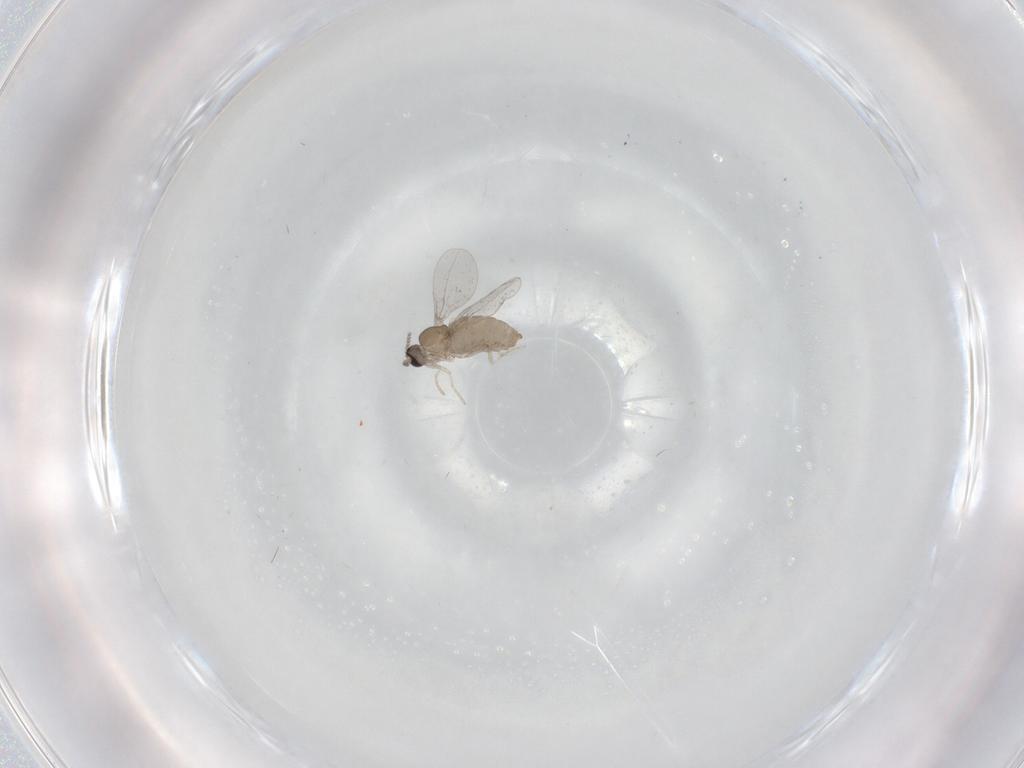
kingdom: Animalia
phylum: Arthropoda
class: Insecta
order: Diptera
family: Cecidomyiidae
